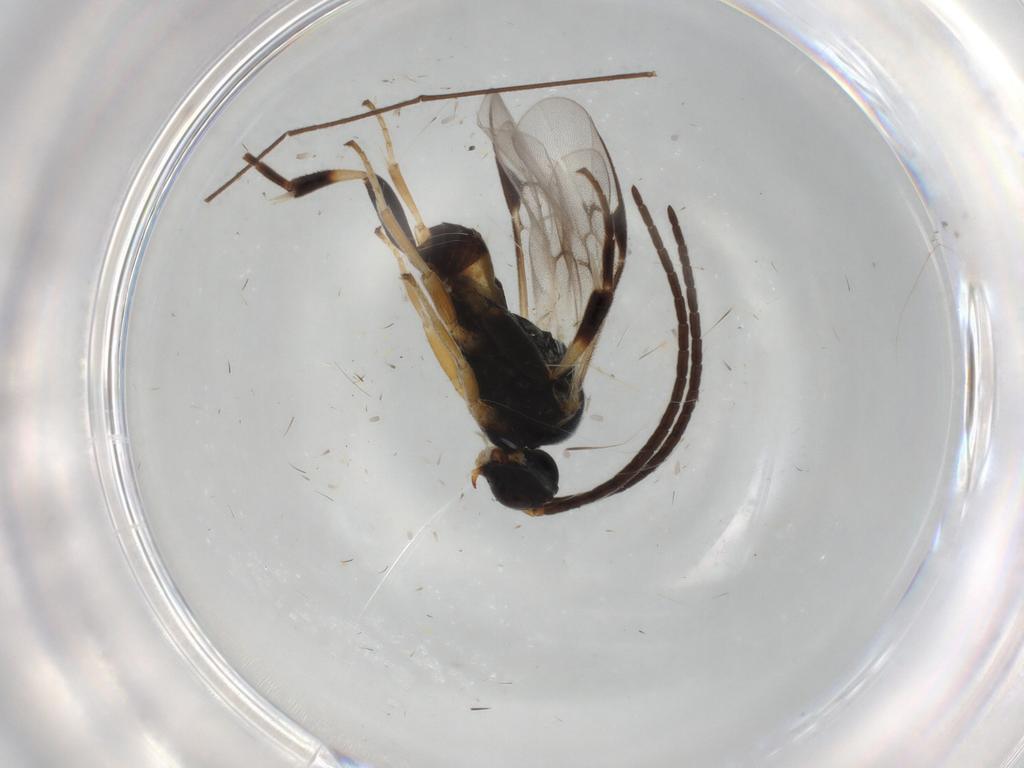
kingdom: Animalia
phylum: Arthropoda
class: Insecta
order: Hymenoptera
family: Braconidae
